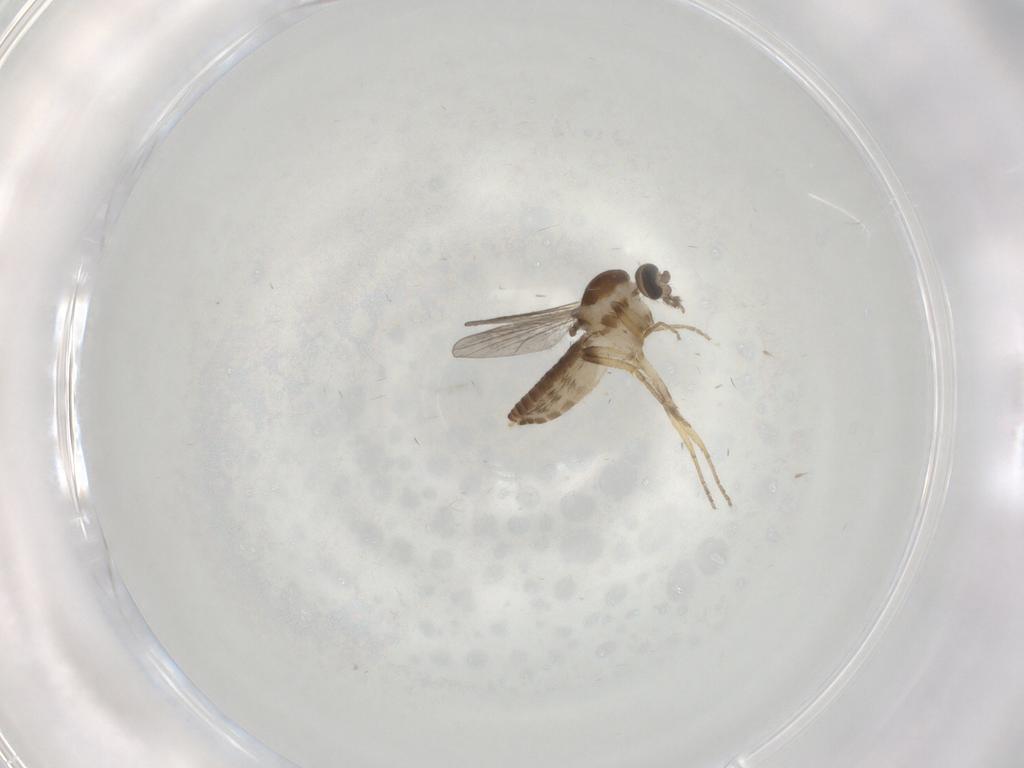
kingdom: Animalia
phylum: Arthropoda
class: Insecta
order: Diptera
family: Ceratopogonidae
